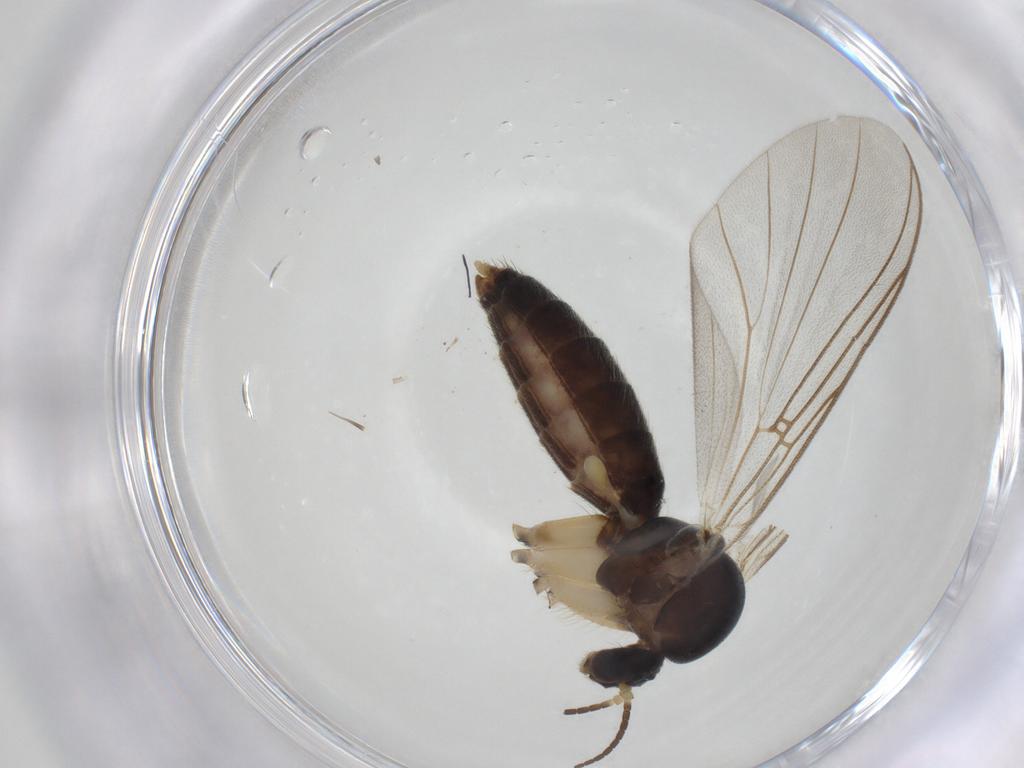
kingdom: Animalia
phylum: Arthropoda
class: Insecta
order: Diptera
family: Mycetophilidae
